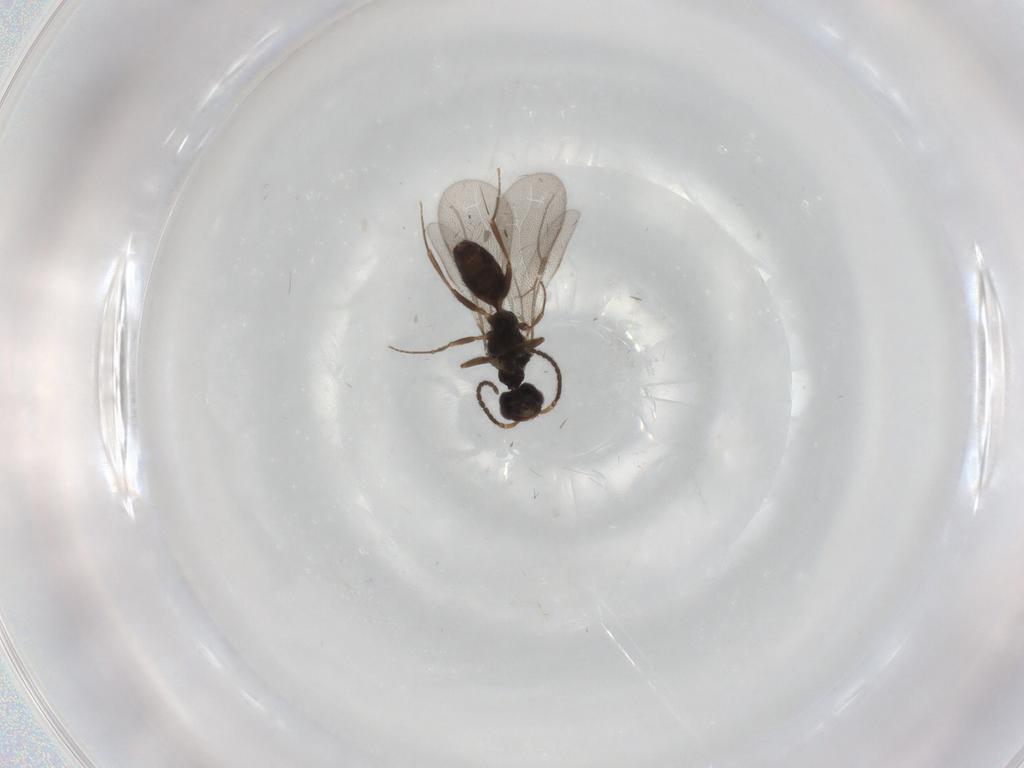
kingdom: Animalia
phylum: Arthropoda
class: Insecta
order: Hymenoptera
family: Bethylidae
